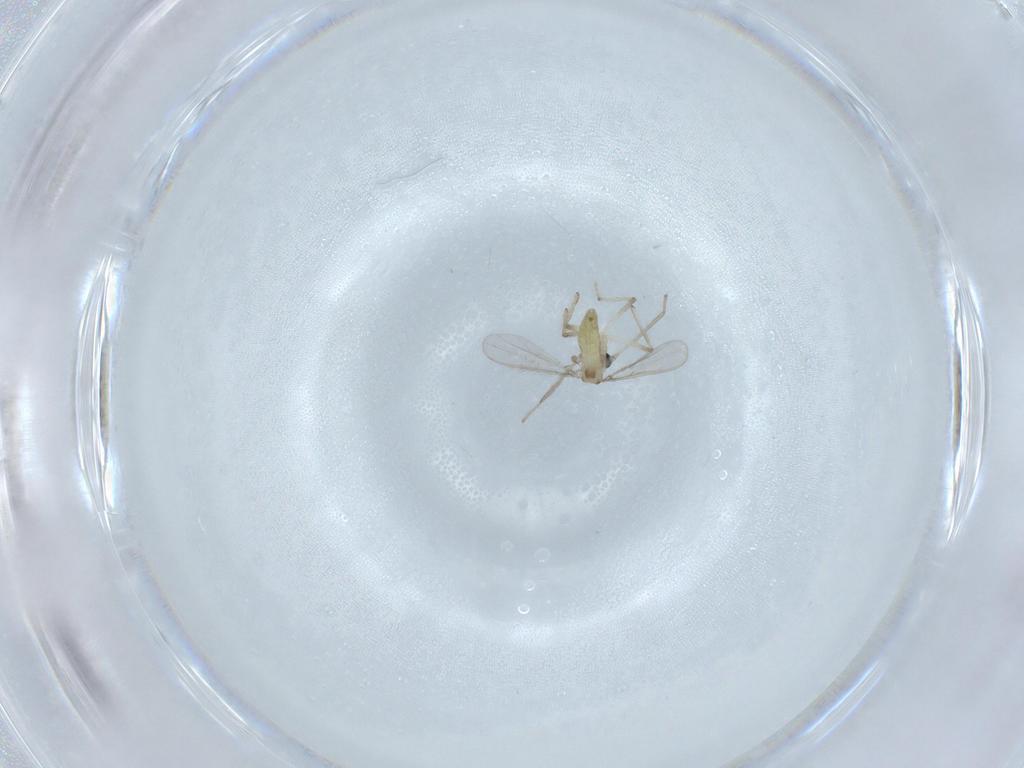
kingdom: Animalia
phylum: Arthropoda
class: Insecta
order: Diptera
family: Chironomidae
